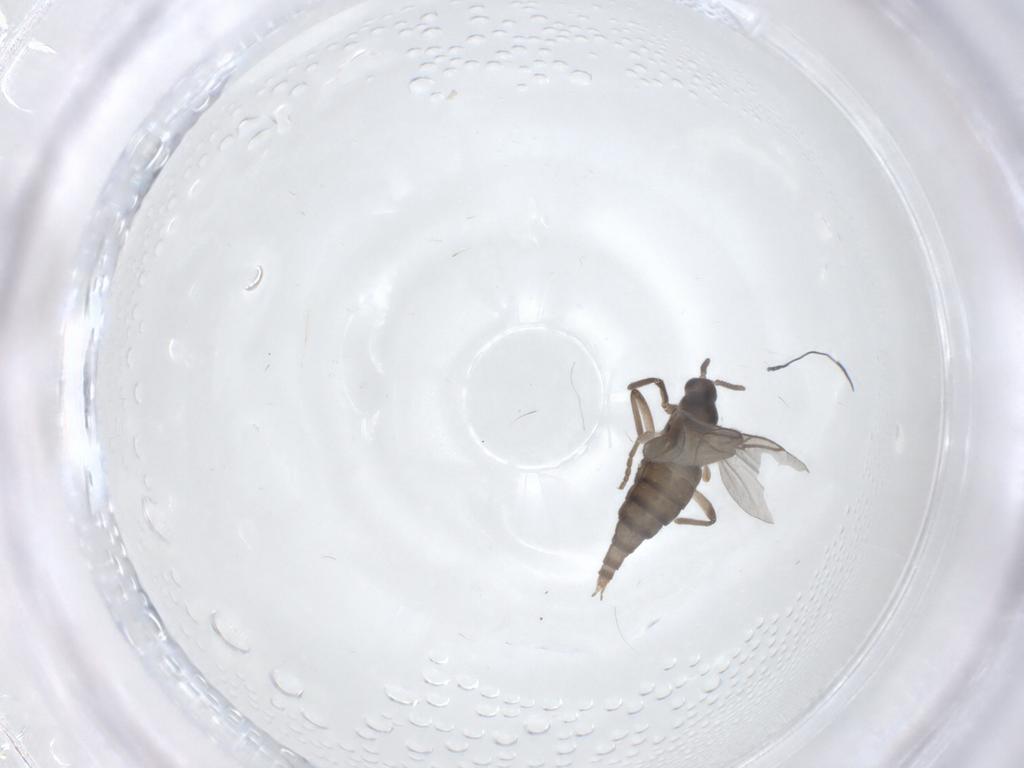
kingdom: Animalia
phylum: Arthropoda
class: Insecta
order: Diptera
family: Cecidomyiidae
